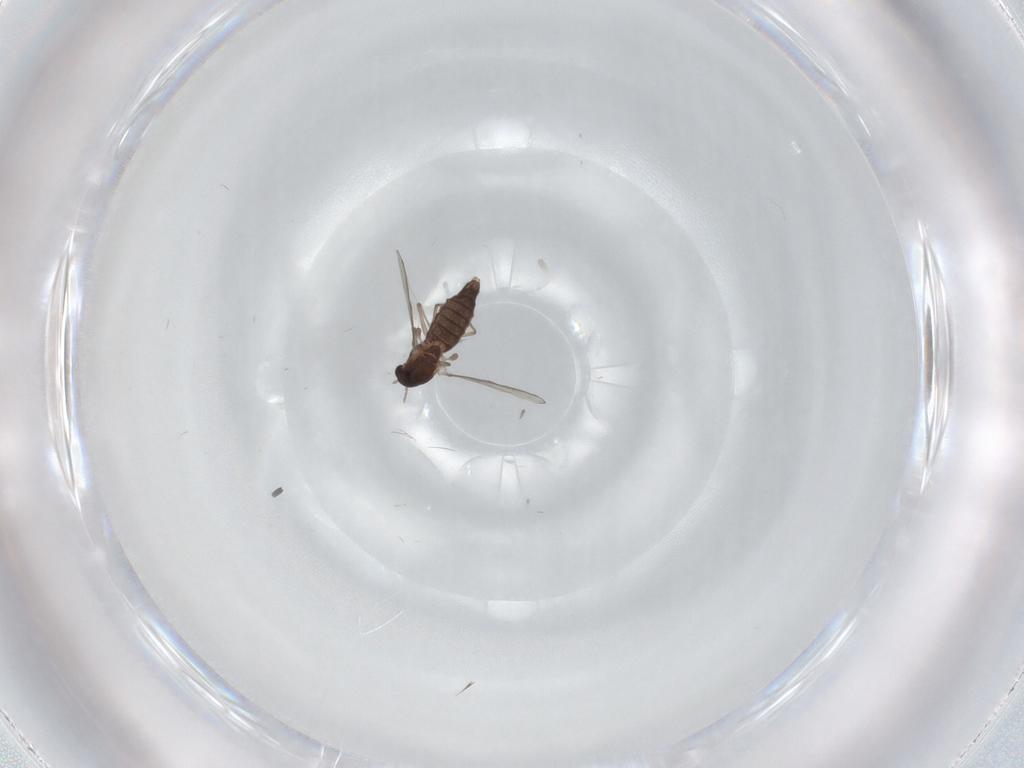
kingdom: Animalia
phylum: Arthropoda
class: Insecta
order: Diptera
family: Chironomidae
